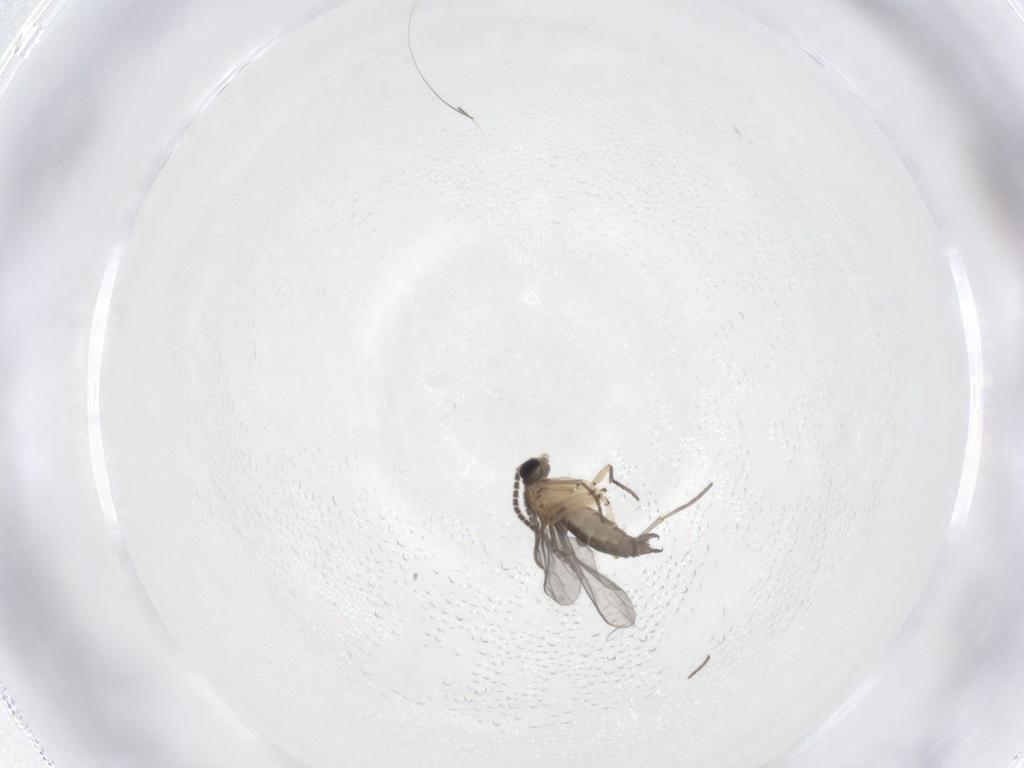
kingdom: Animalia
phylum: Arthropoda
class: Insecta
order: Diptera
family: Sciaridae
